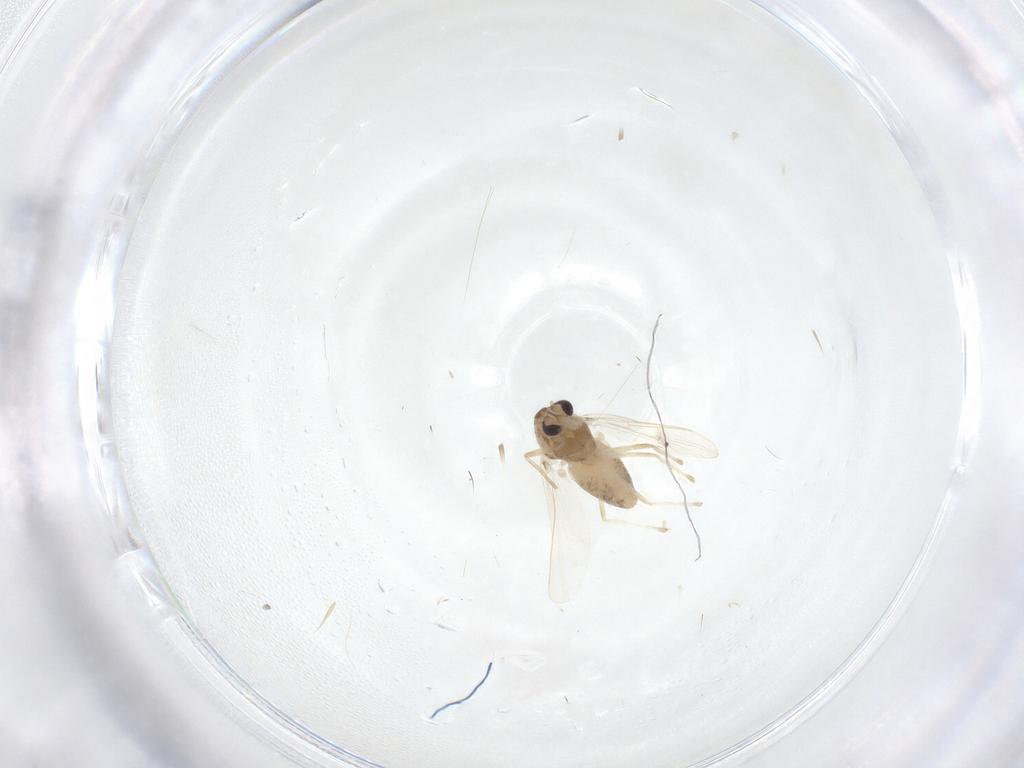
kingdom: Animalia
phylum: Arthropoda
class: Insecta
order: Diptera
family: Chironomidae
